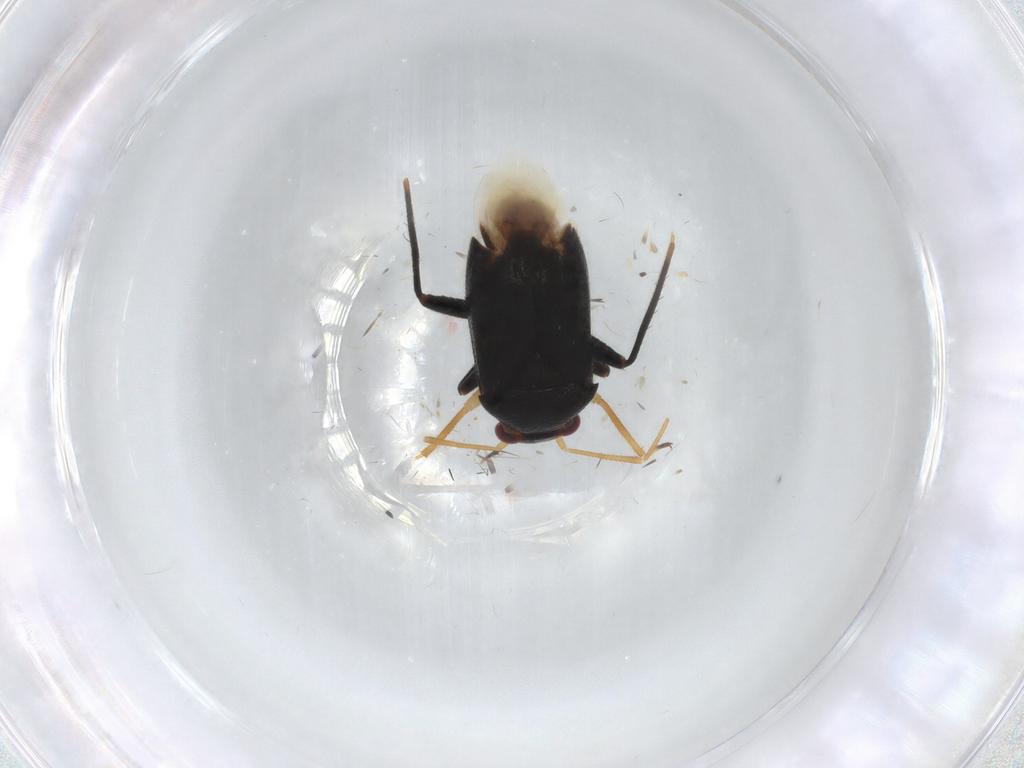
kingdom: Animalia
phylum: Arthropoda
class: Insecta
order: Hemiptera
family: Miridae
